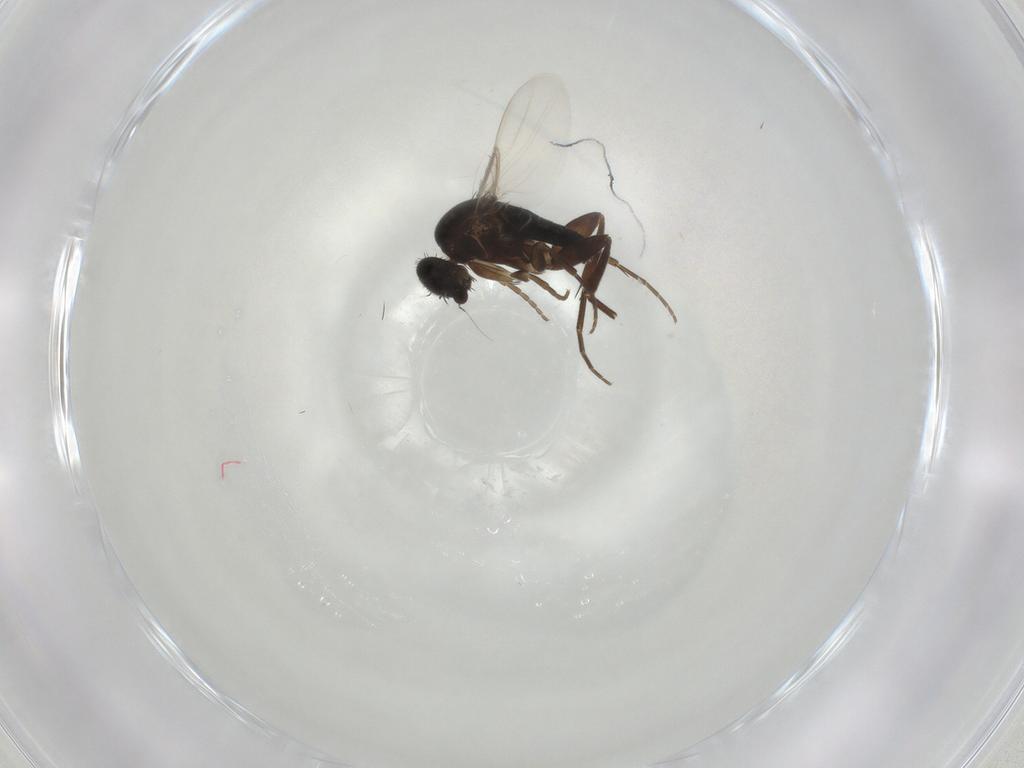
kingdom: Animalia
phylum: Arthropoda
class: Insecta
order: Diptera
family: Phoridae
